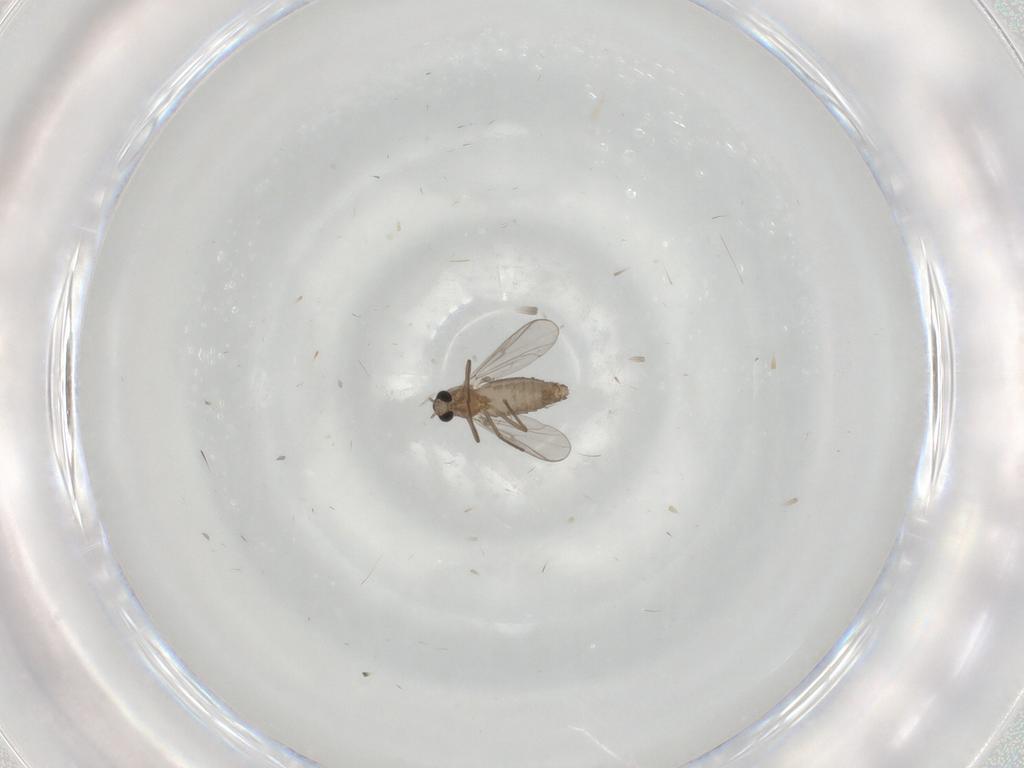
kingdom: Animalia
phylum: Arthropoda
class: Insecta
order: Diptera
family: Chironomidae
